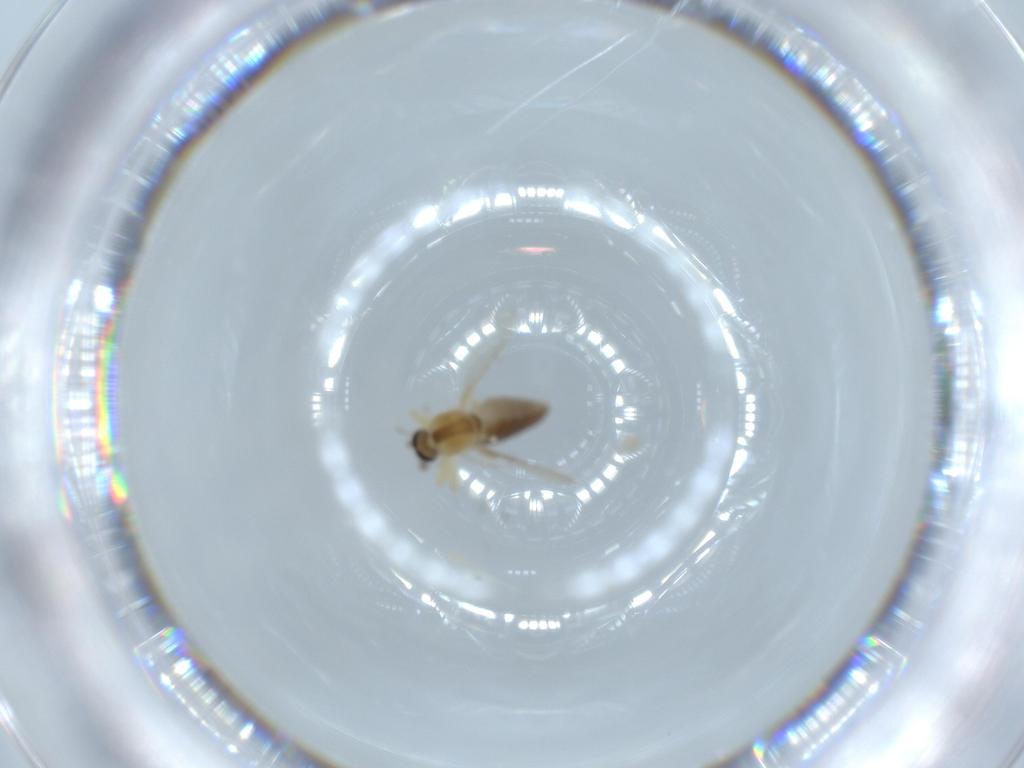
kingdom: Animalia
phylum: Arthropoda
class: Insecta
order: Diptera
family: Ceratopogonidae
